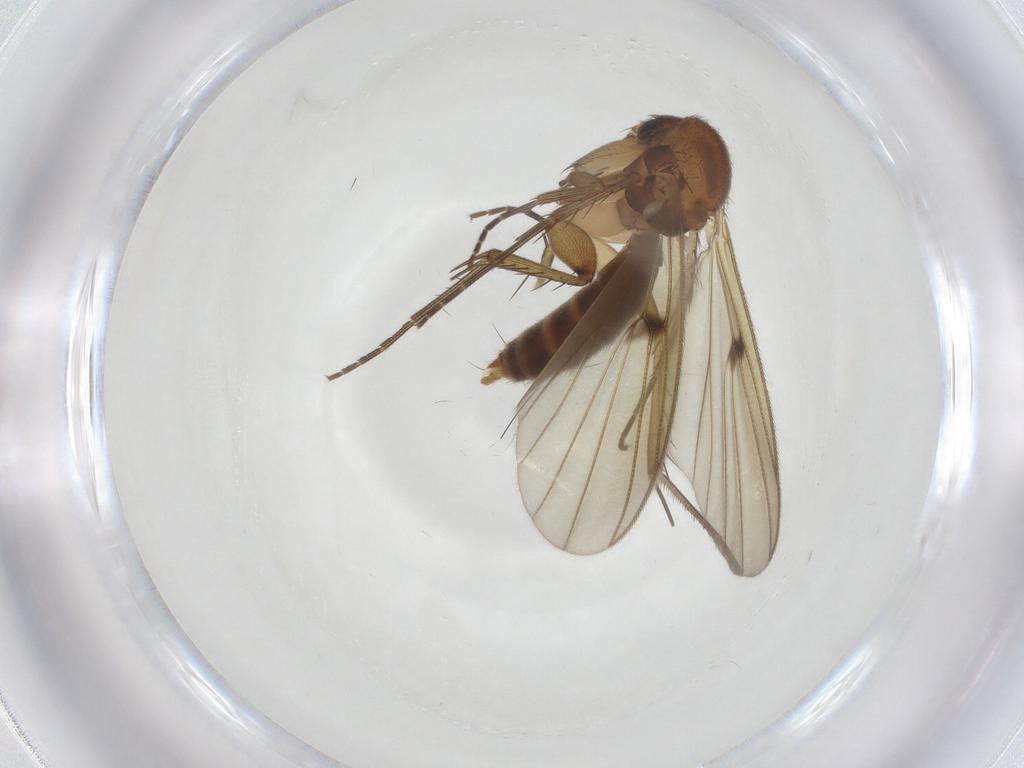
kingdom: Animalia
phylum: Arthropoda
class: Insecta
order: Diptera
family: Mycetophilidae
